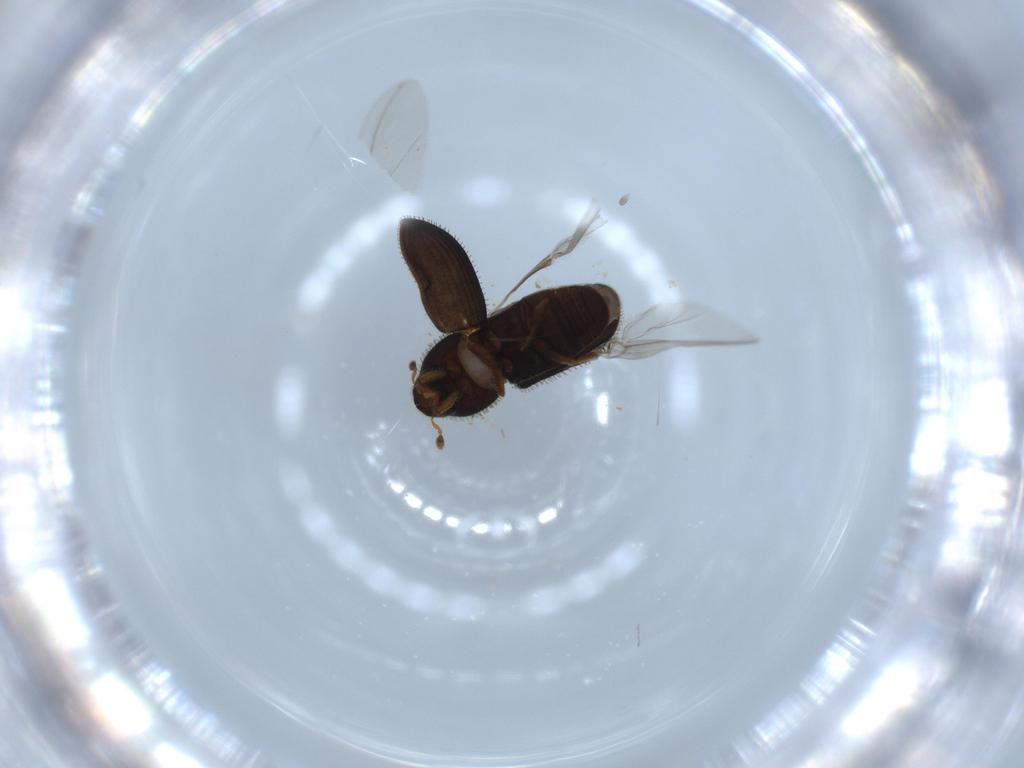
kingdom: Animalia
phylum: Arthropoda
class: Insecta
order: Coleoptera
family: Curculionidae
